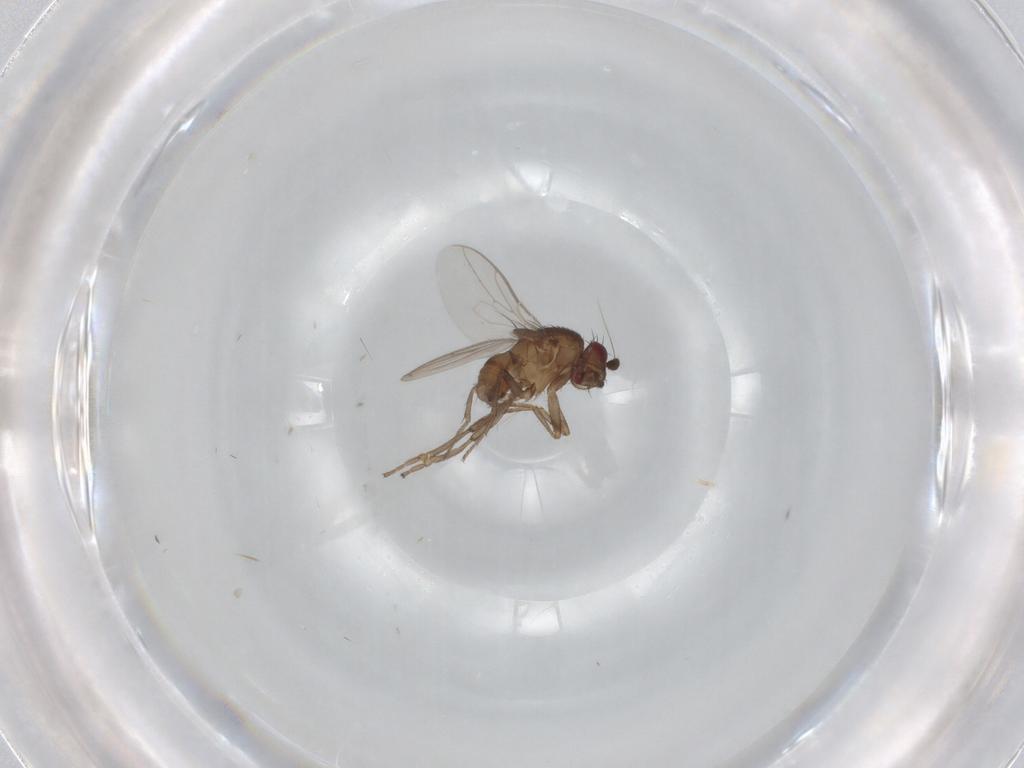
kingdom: Animalia
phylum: Arthropoda
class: Insecta
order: Diptera
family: Sphaeroceridae
